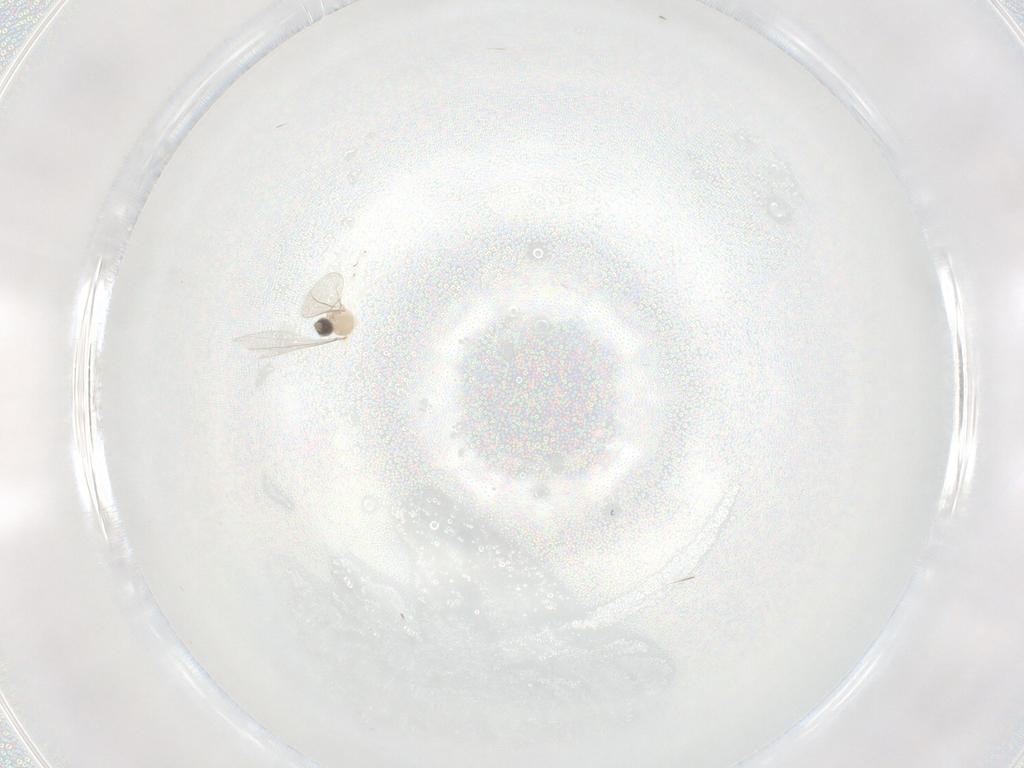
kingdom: Animalia
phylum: Arthropoda
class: Insecta
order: Diptera
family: Cecidomyiidae
